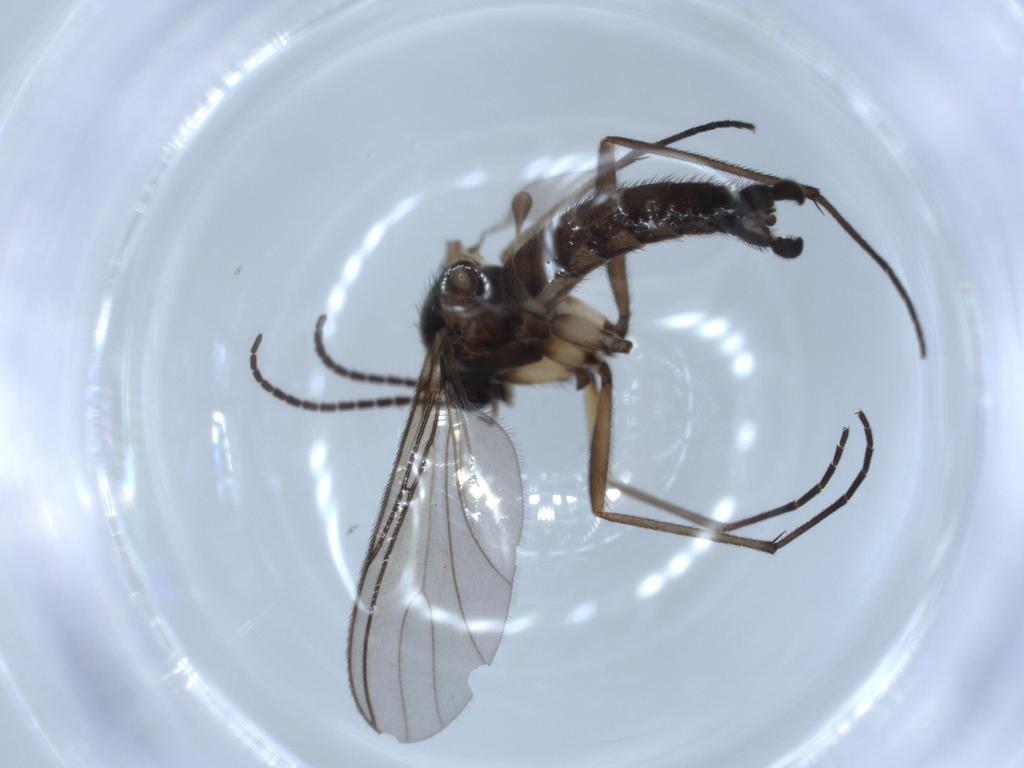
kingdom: Animalia
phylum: Arthropoda
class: Insecta
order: Diptera
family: Sciaridae
